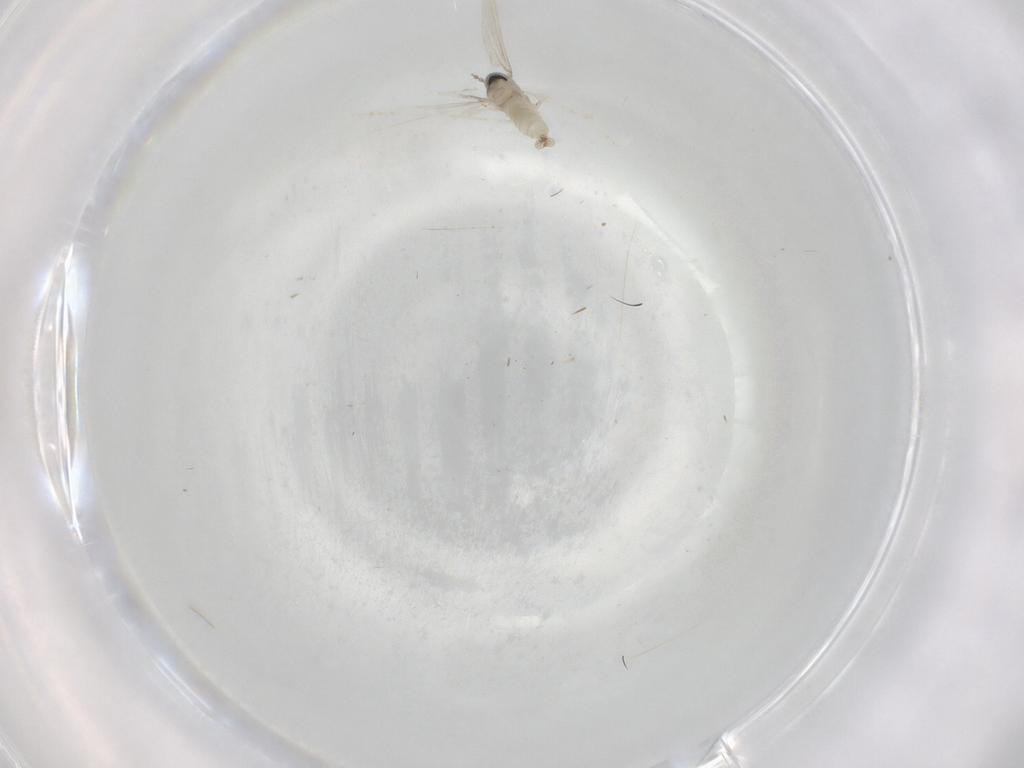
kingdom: Animalia
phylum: Arthropoda
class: Insecta
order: Diptera
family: Cecidomyiidae
